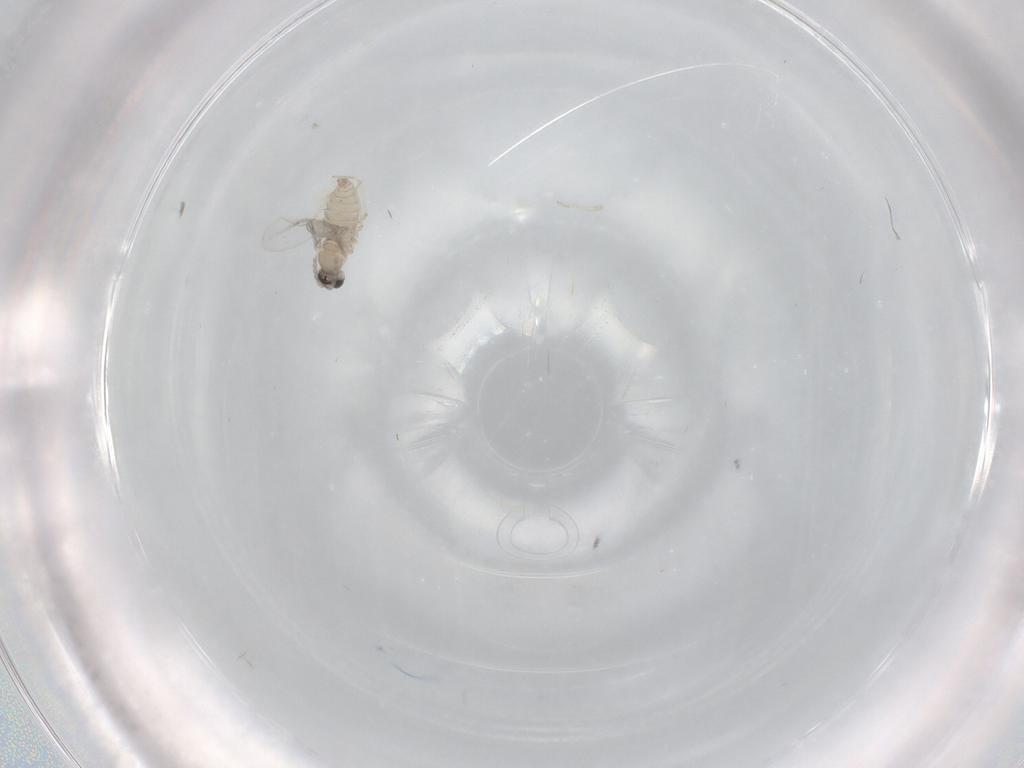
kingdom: Animalia
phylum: Arthropoda
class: Insecta
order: Diptera
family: Cecidomyiidae
